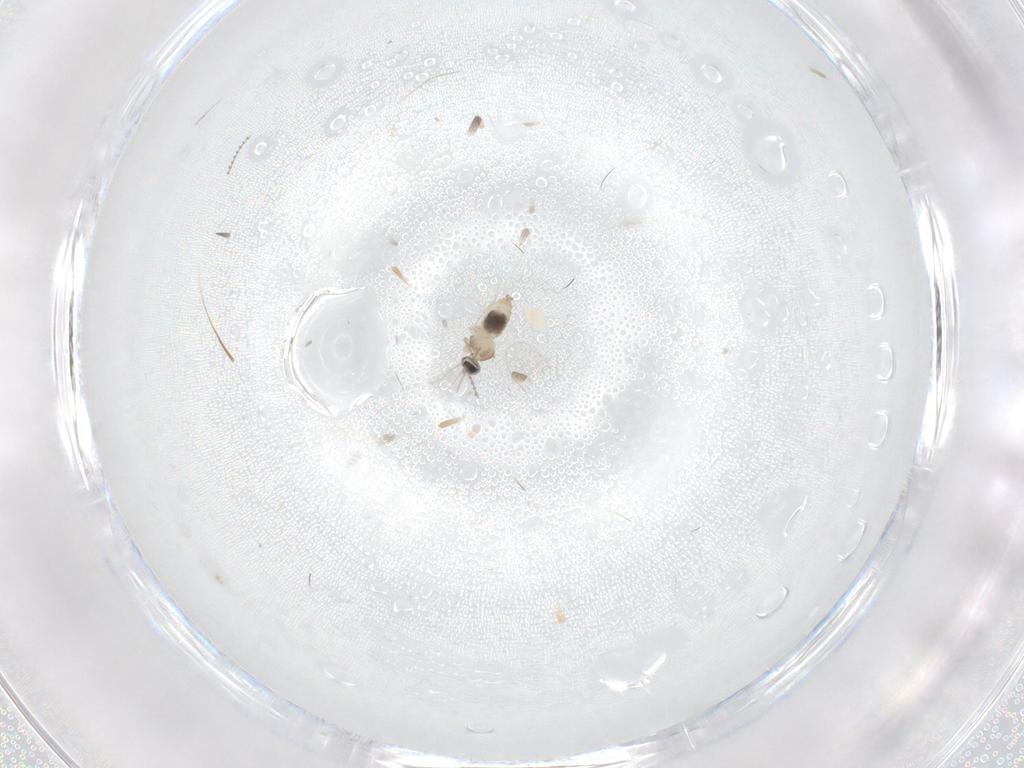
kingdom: Animalia
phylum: Arthropoda
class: Insecta
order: Diptera
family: Cecidomyiidae
